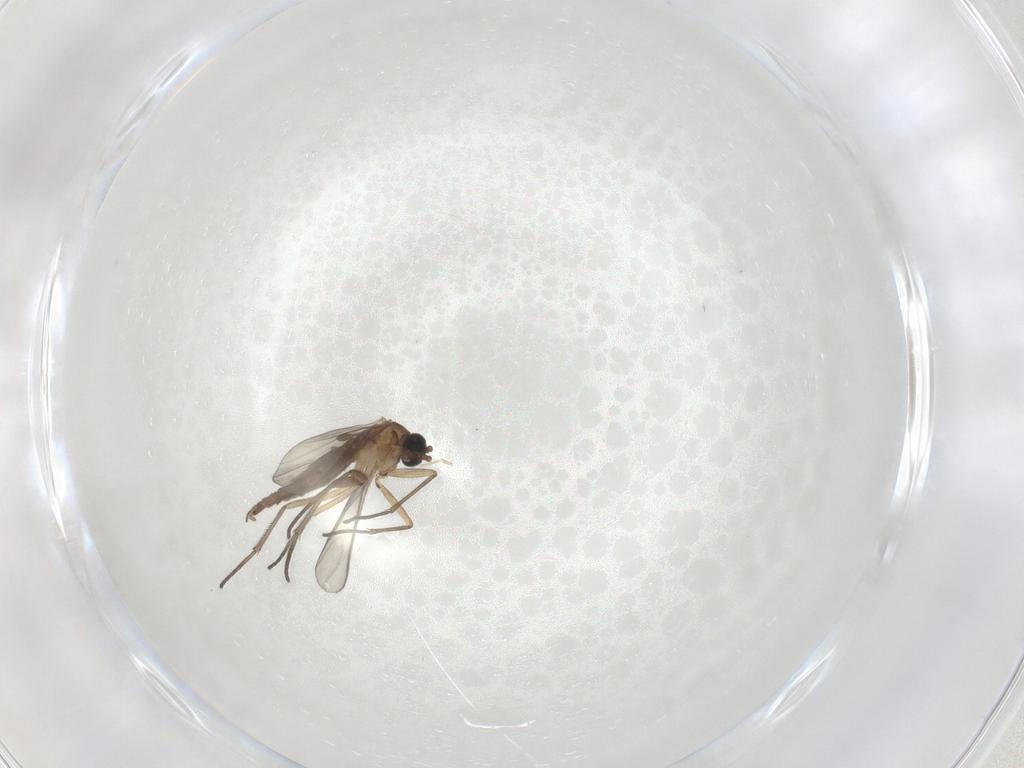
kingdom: Animalia
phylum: Arthropoda
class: Insecta
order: Diptera
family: Sciaridae
